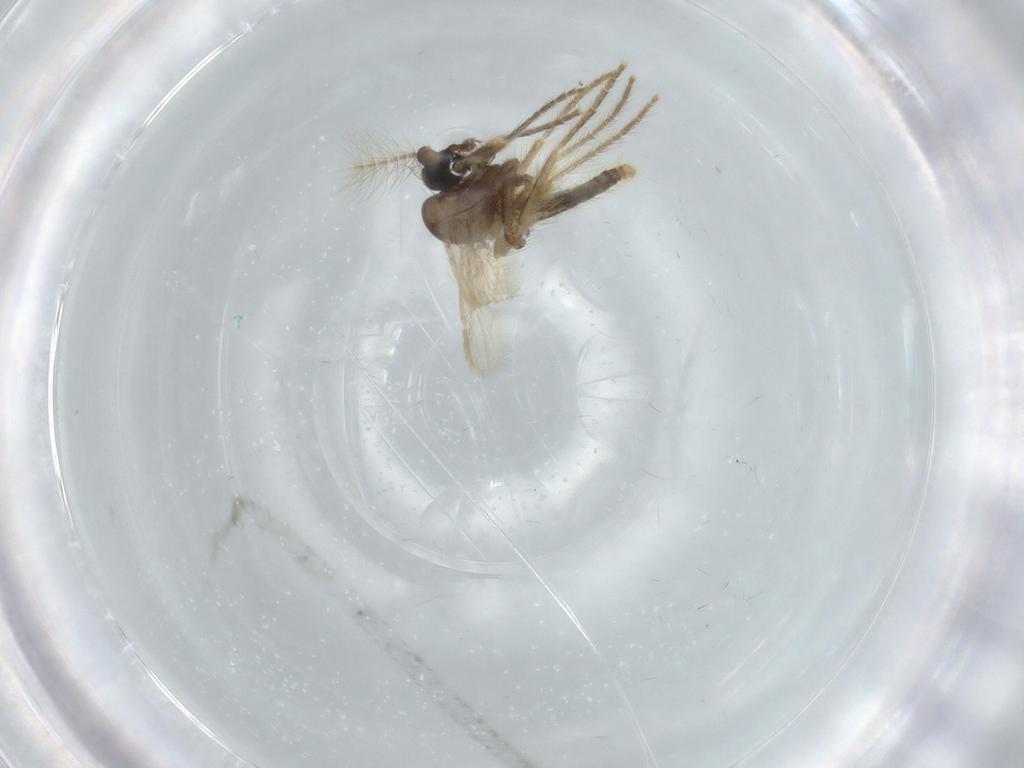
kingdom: Animalia
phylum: Arthropoda
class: Insecta
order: Diptera
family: Corethrellidae
